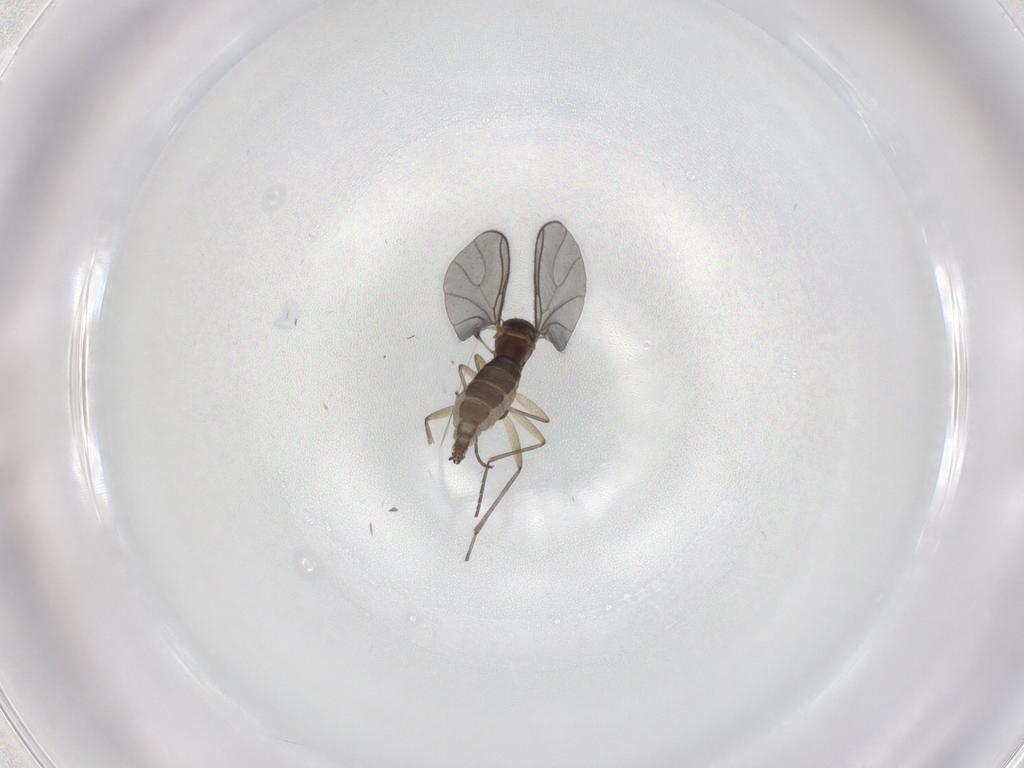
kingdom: Animalia
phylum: Arthropoda
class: Insecta
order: Diptera
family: Sciaridae
